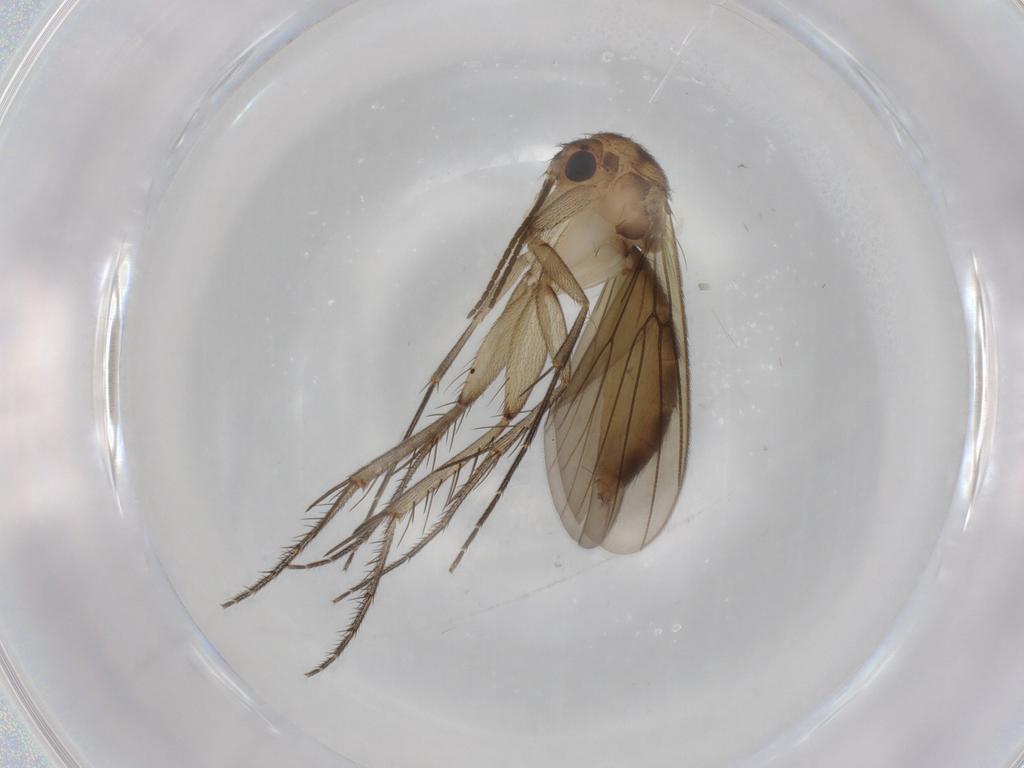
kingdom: Animalia
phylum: Arthropoda
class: Insecta
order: Diptera
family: Mycetophilidae
